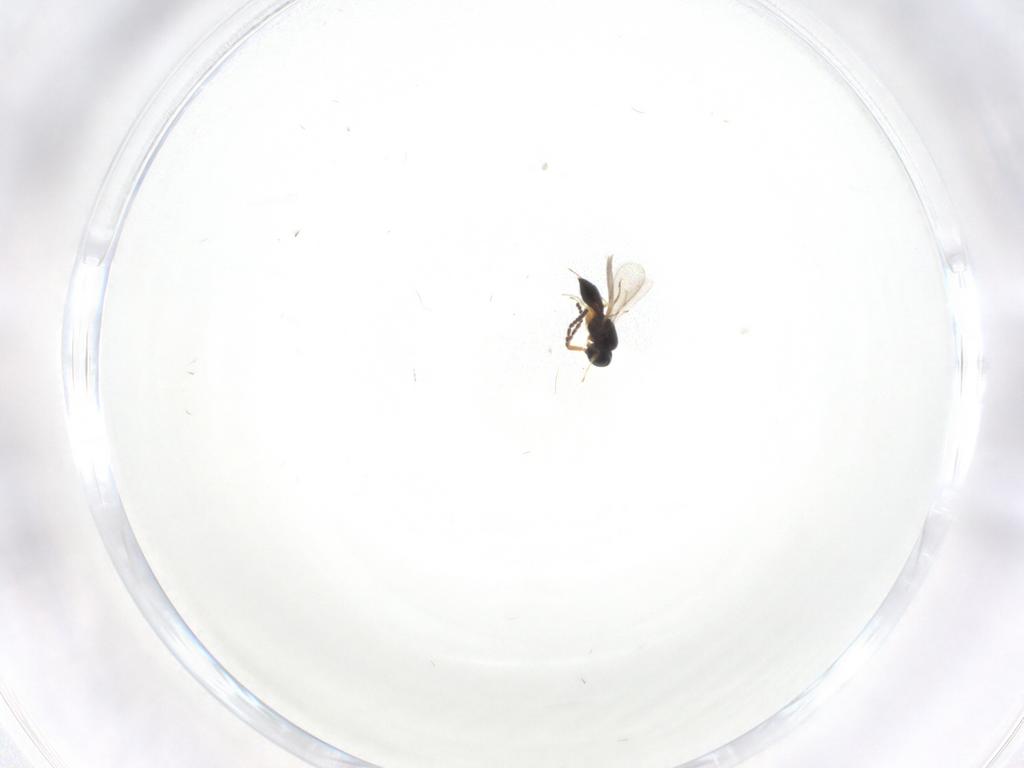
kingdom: Animalia
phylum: Arthropoda
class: Insecta
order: Hymenoptera
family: Scelionidae
